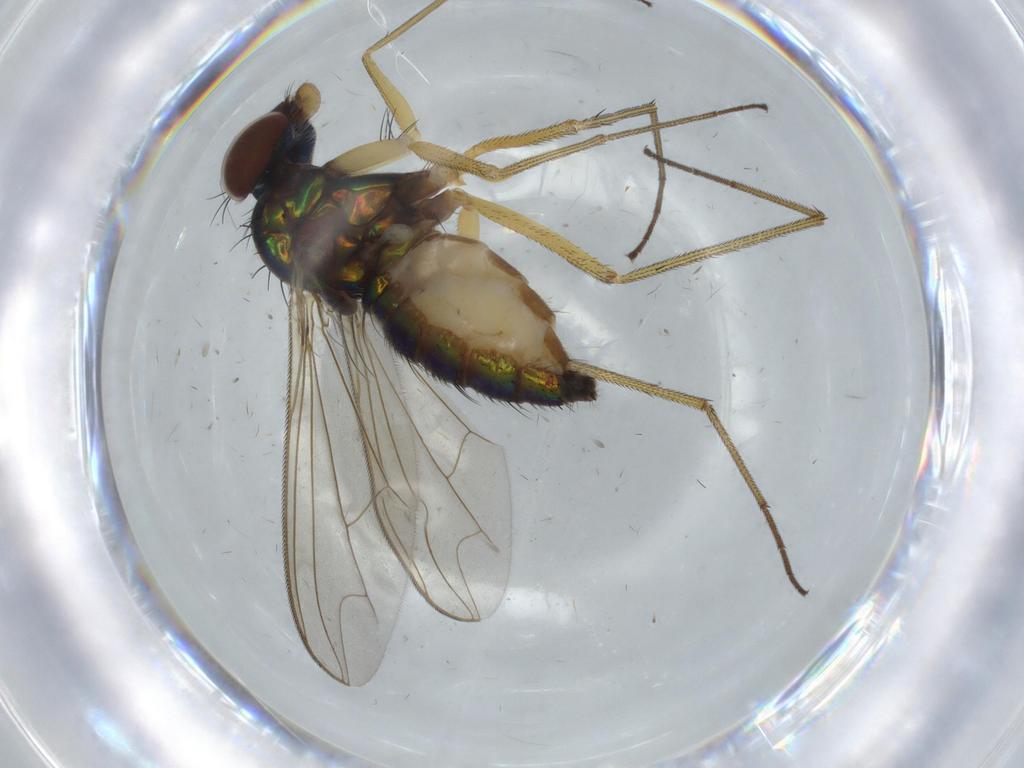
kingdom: Animalia
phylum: Arthropoda
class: Insecta
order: Diptera
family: Dolichopodidae
